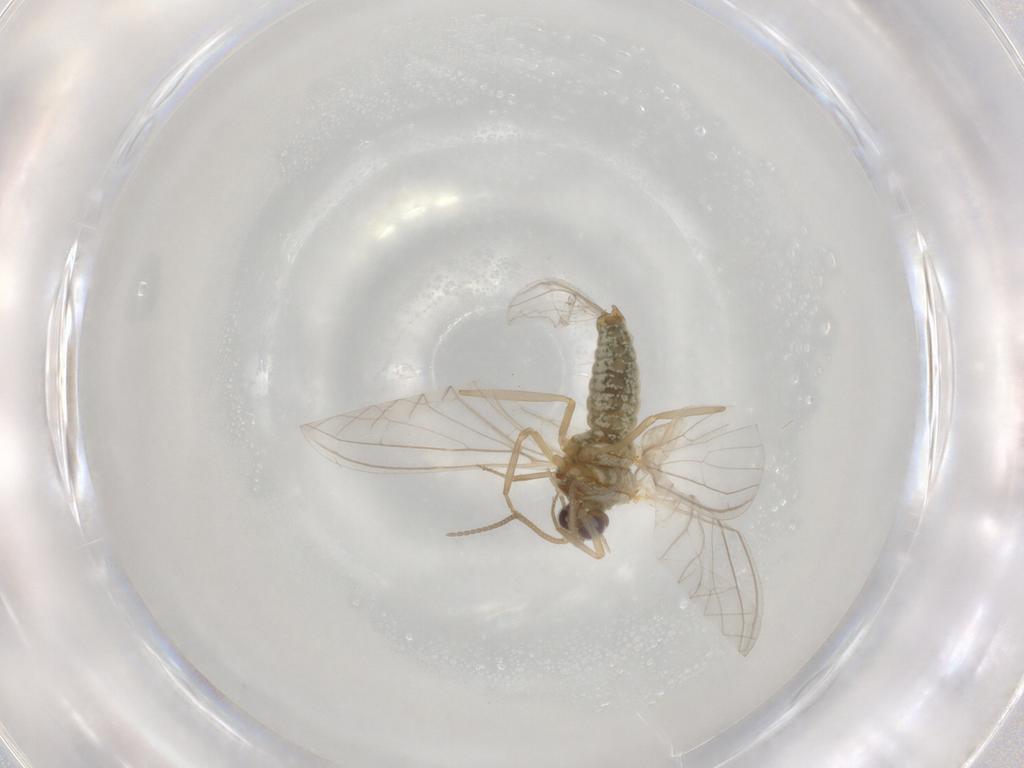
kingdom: Animalia
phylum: Arthropoda
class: Insecta
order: Neuroptera
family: Coniopterygidae
